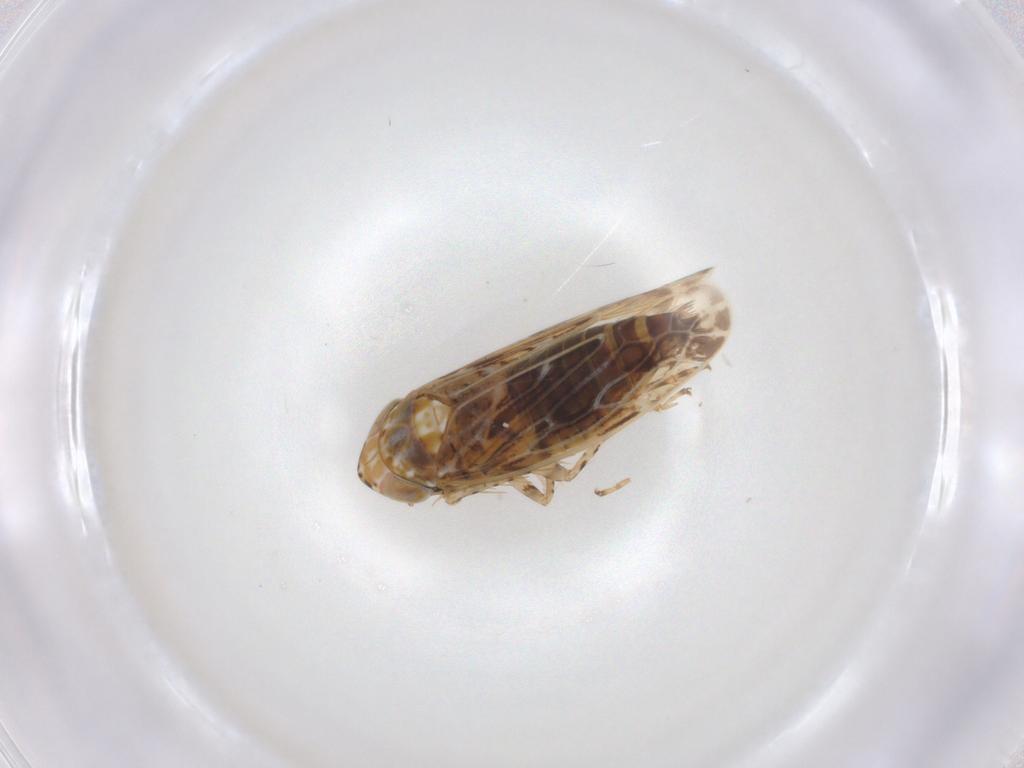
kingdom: Animalia
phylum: Arthropoda
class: Insecta
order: Hemiptera
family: Cicadellidae
